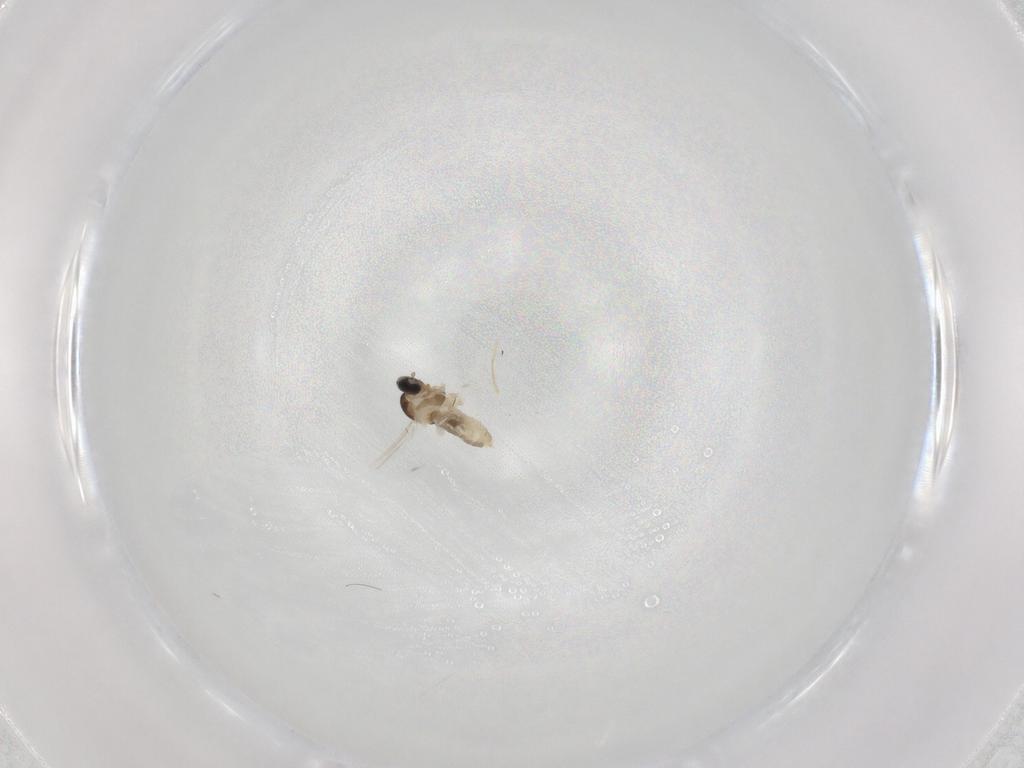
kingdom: Animalia
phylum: Arthropoda
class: Insecta
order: Diptera
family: Cecidomyiidae
